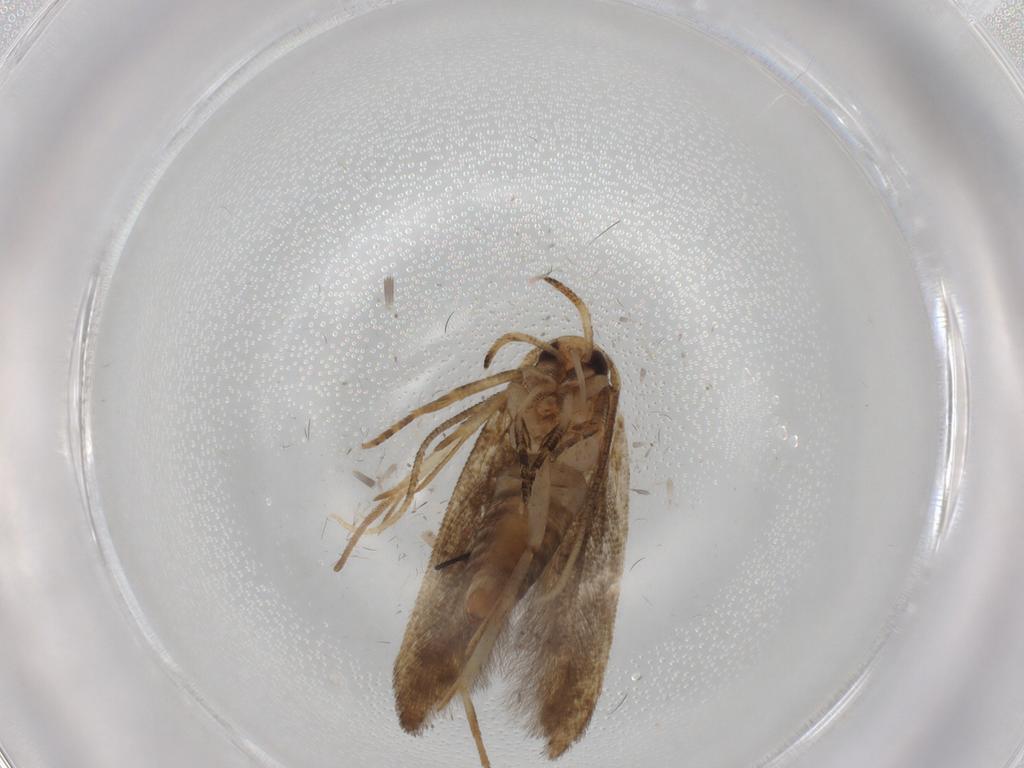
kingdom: Animalia
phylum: Arthropoda
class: Insecta
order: Lepidoptera
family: Cosmopterigidae
